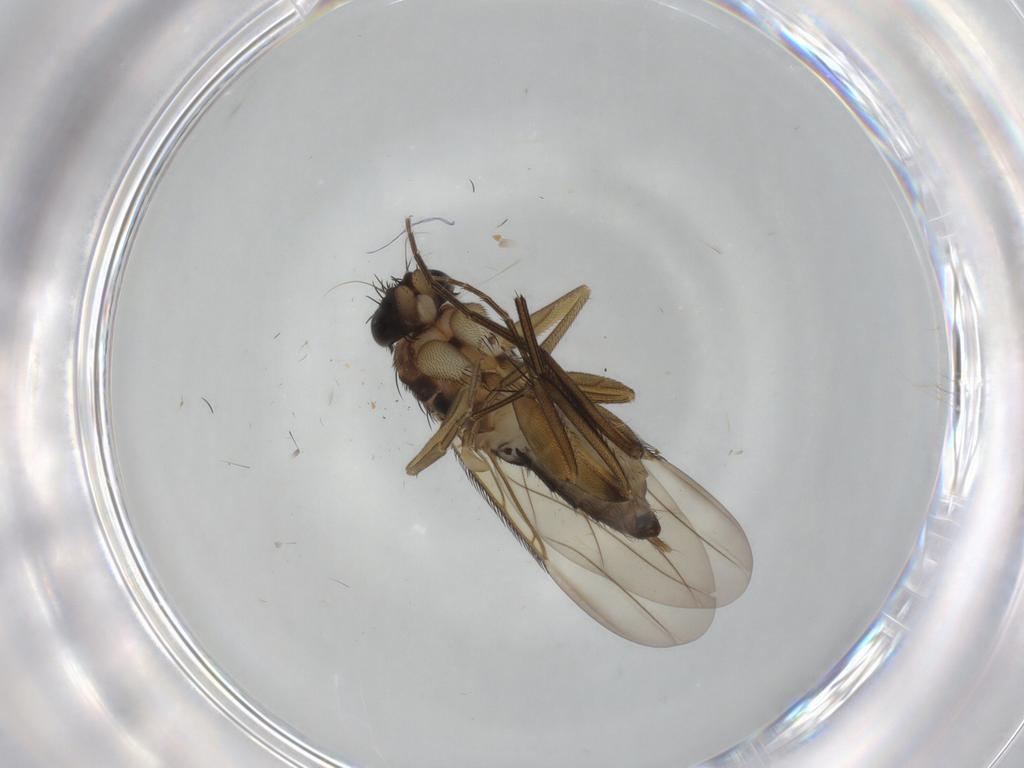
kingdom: Animalia
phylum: Arthropoda
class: Insecta
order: Diptera
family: Phoridae
